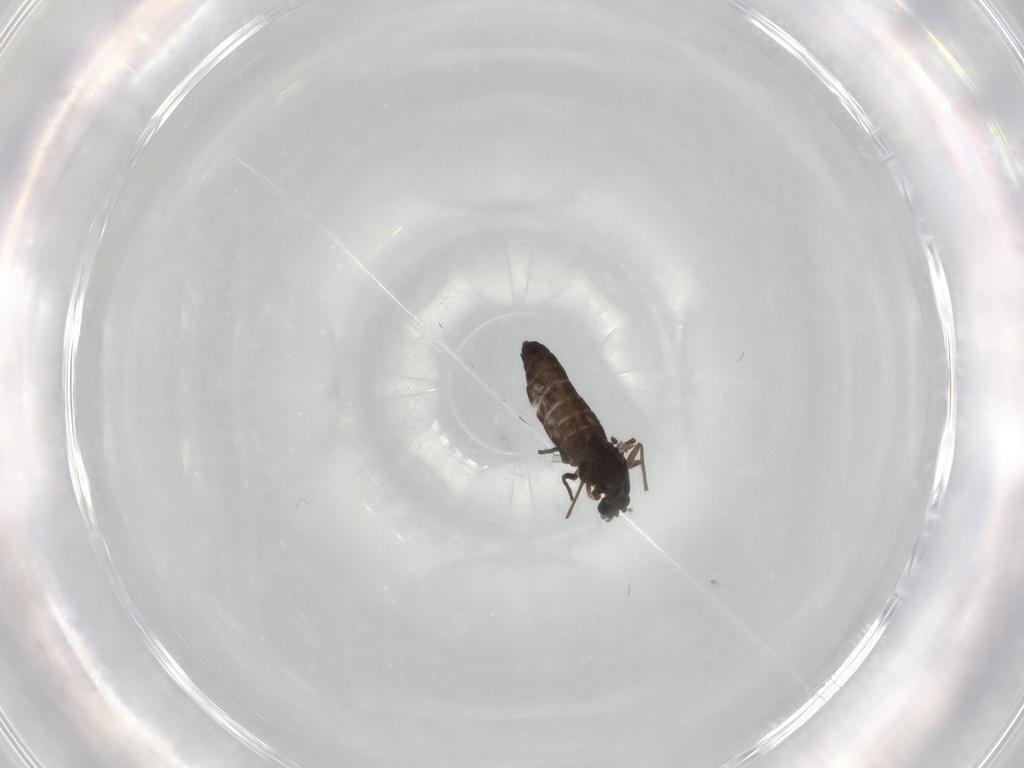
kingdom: Animalia
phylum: Arthropoda
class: Insecta
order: Diptera
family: Chironomidae
